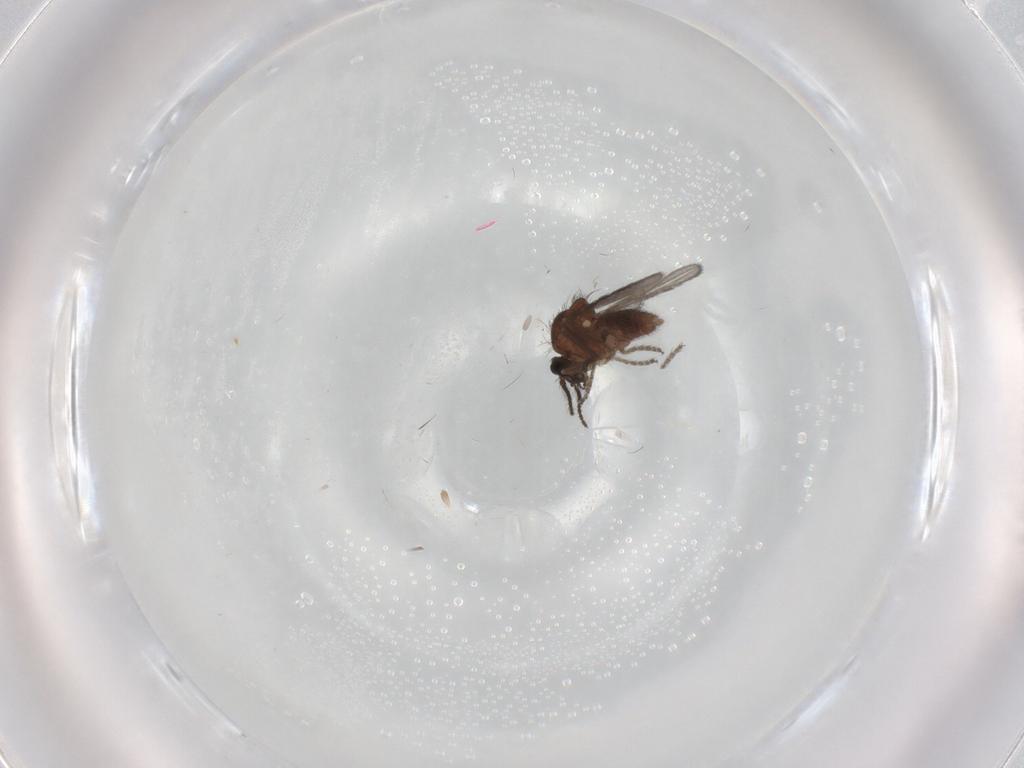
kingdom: Animalia
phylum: Arthropoda
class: Insecta
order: Diptera
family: Ceratopogonidae
